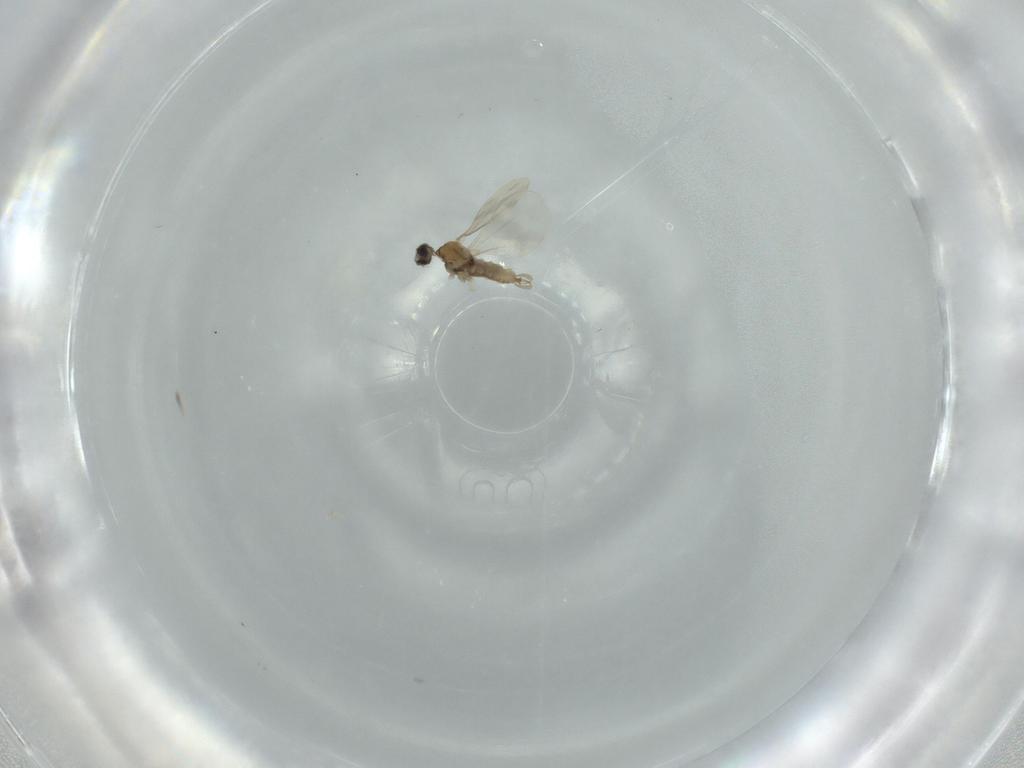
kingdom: Animalia
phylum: Arthropoda
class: Insecta
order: Diptera
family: Cecidomyiidae
